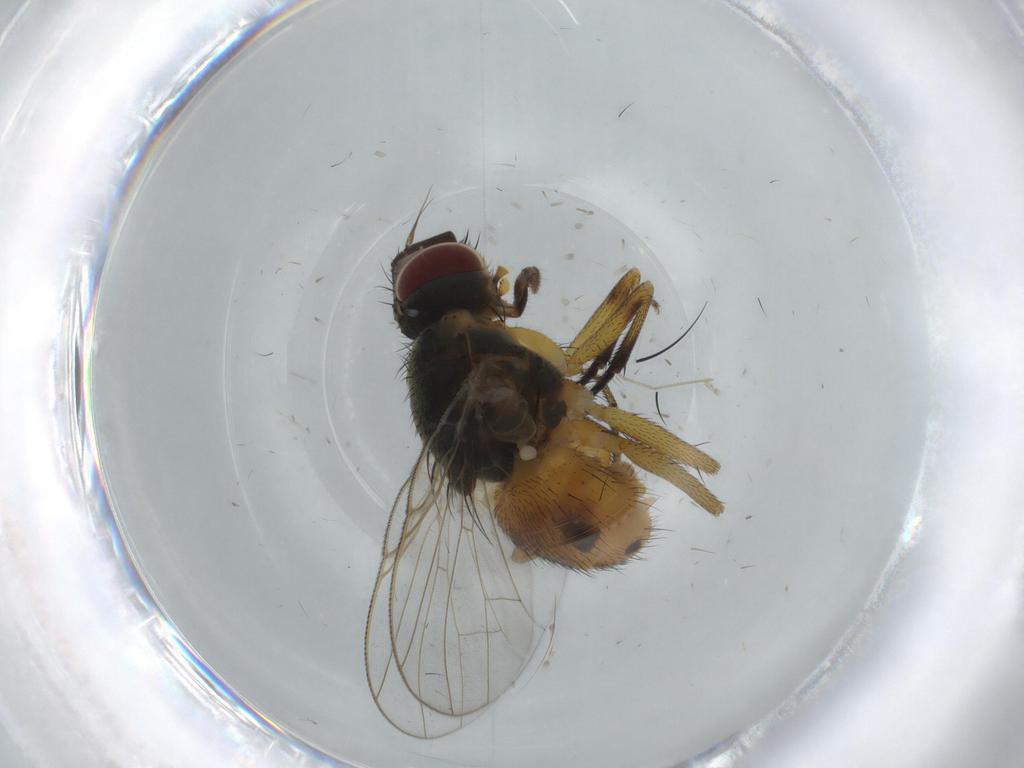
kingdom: Animalia
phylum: Arthropoda
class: Insecta
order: Diptera
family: Muscidae
